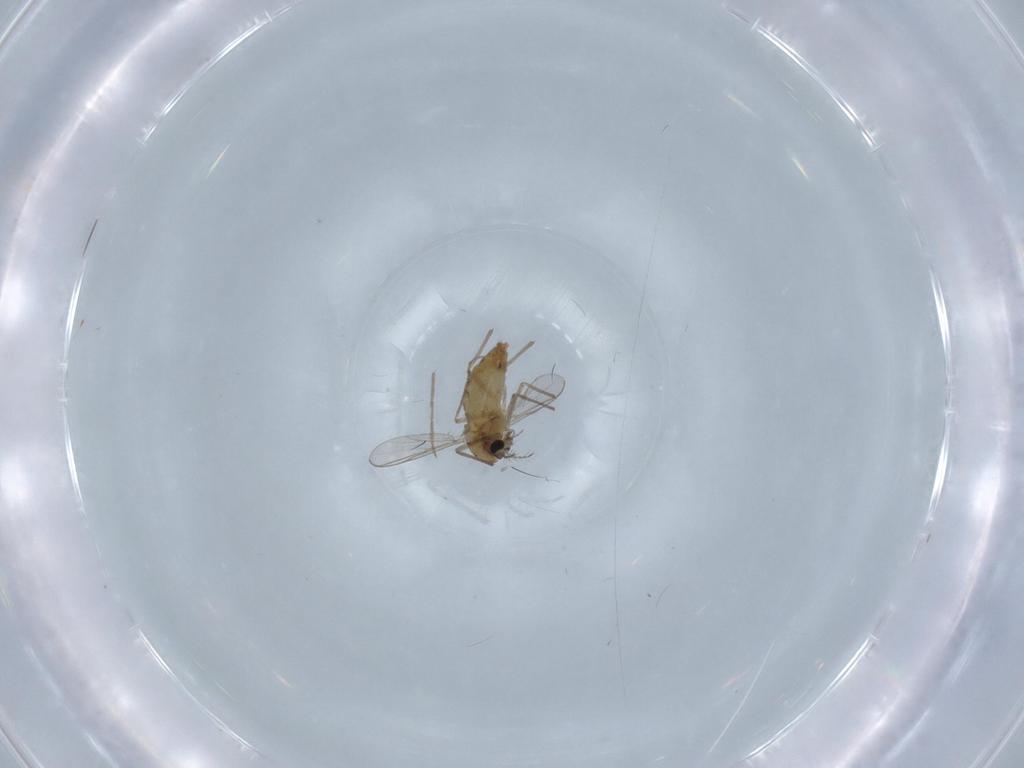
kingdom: Animalia
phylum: Arthropoda
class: Insecta
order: Diptera
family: Chironomidae
